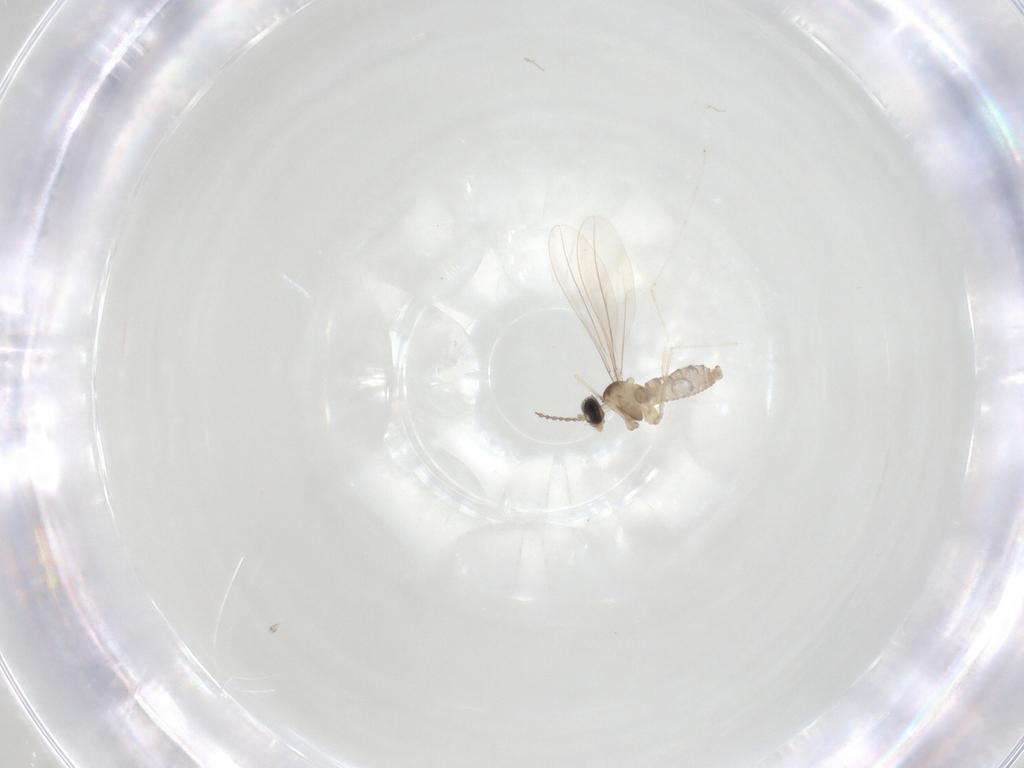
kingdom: Animalia
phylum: Arthropoda
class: Insecta
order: Diptera
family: Cecidomyiidae
